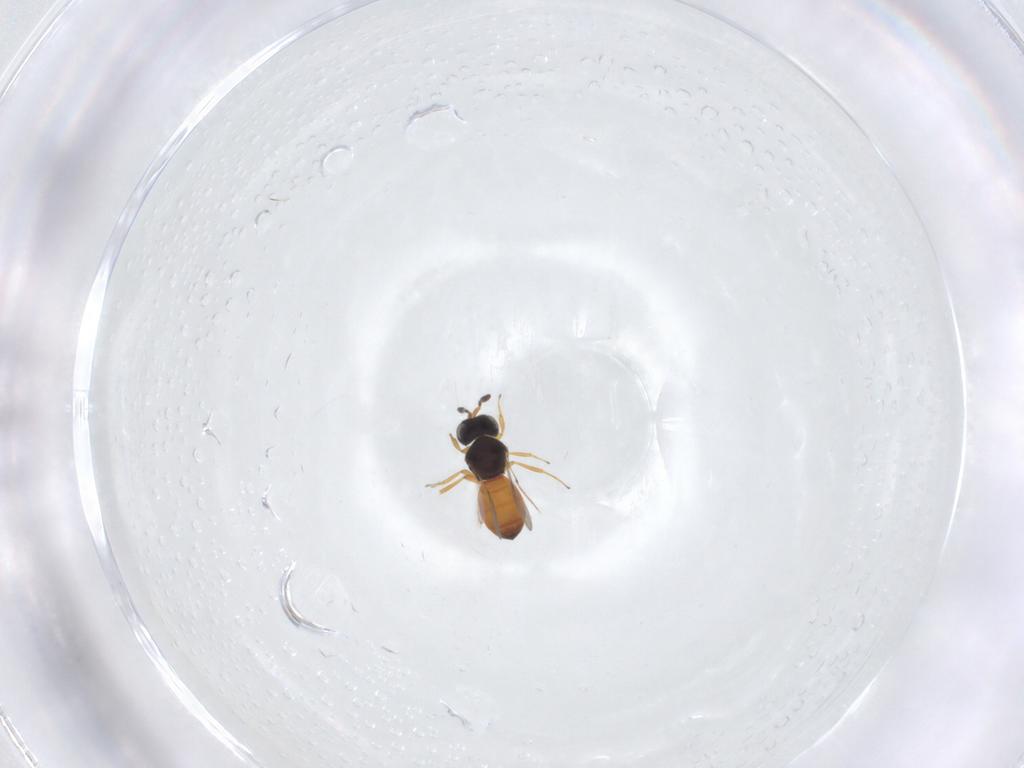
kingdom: Animalia
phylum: Arthropoda
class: Insecta
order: Hymenoptera
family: Scelionidae
